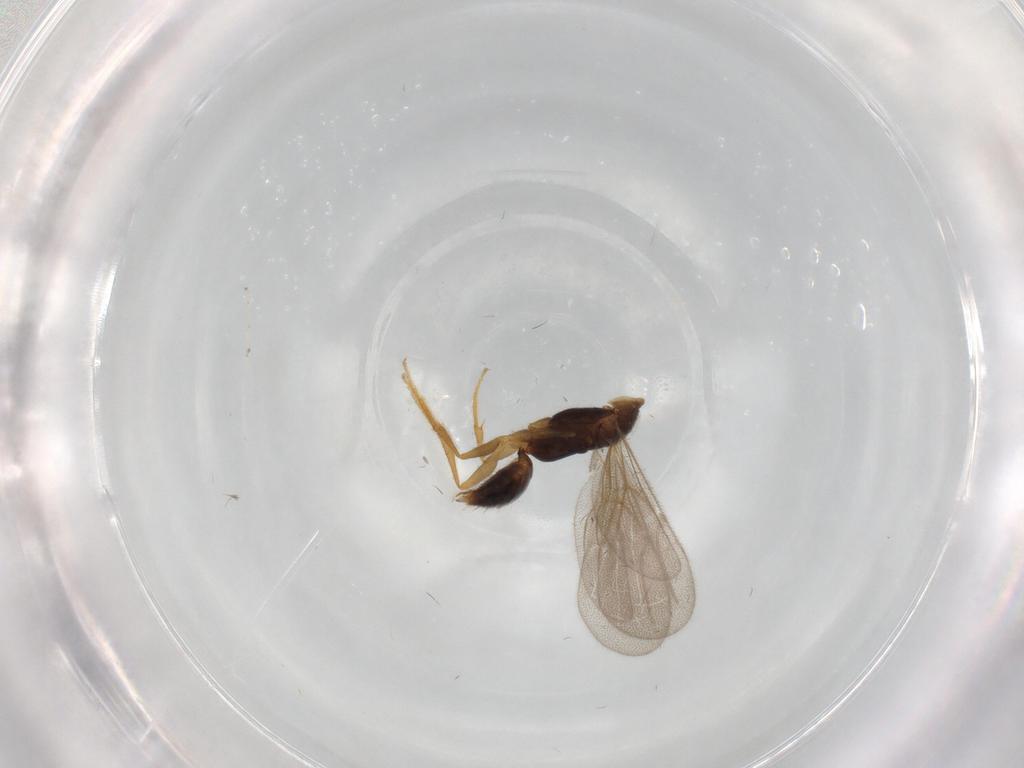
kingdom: Animalia
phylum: Arthropoda
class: Insecta
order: Hymenoptera
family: Bethylidae
